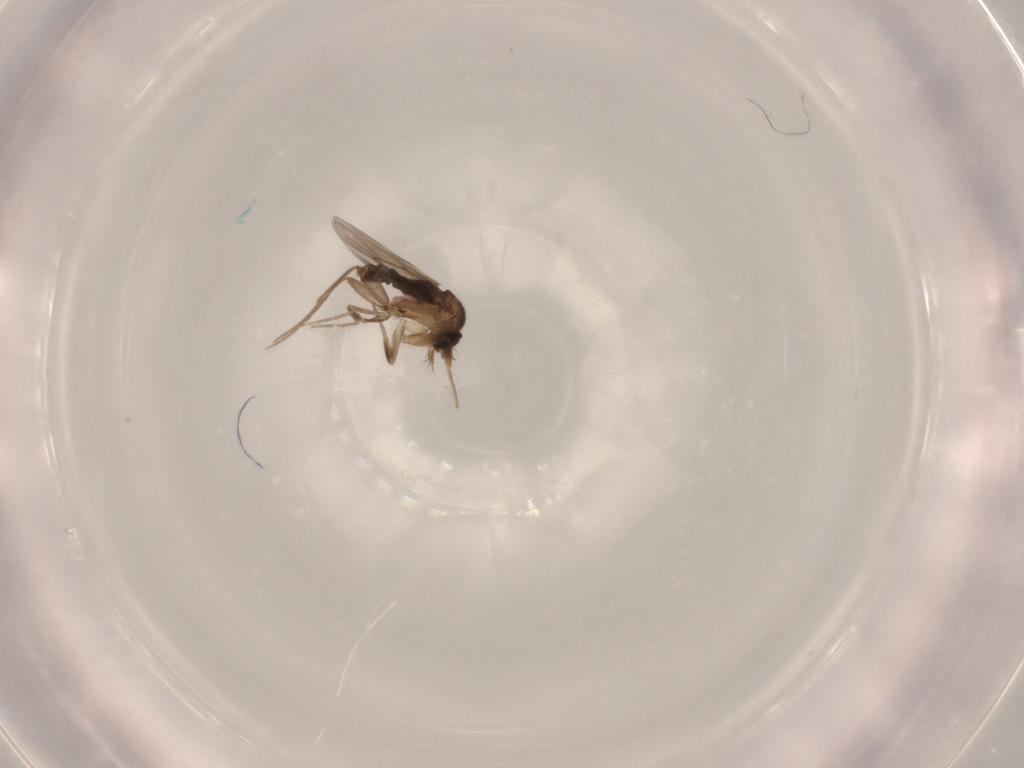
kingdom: Animalia
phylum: Arthropoda
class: Insecta
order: Diptera
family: Phoridae
